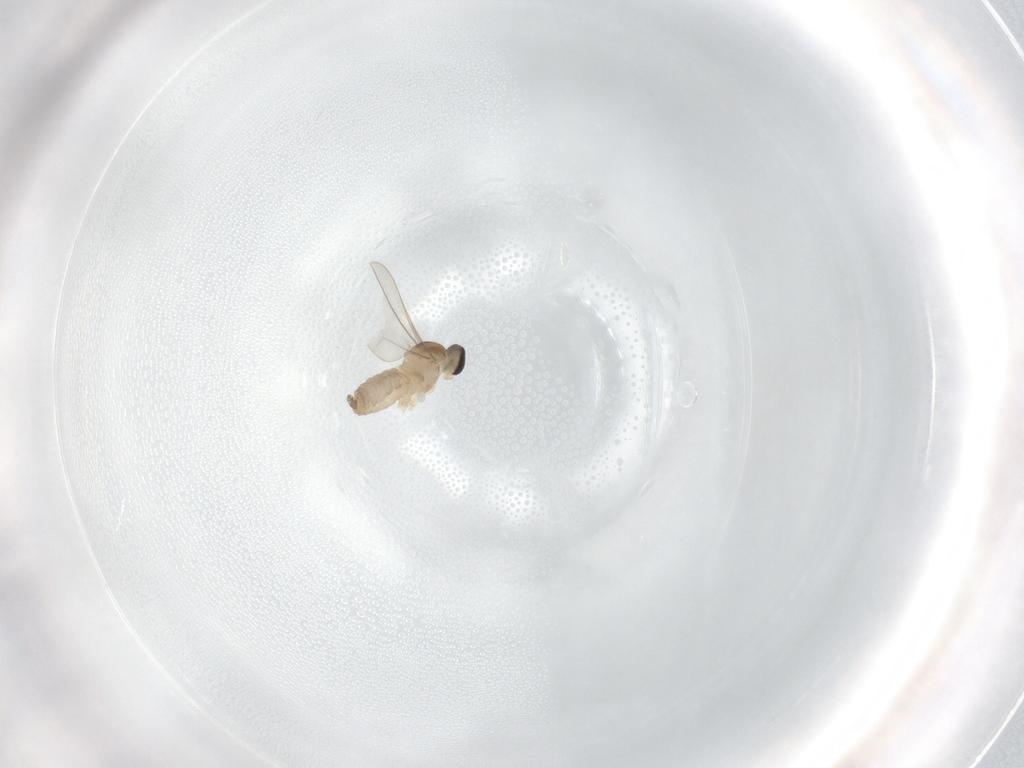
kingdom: Animalia
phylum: Arthropoda
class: Insecta
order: Diptera
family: Cecidomyiidae
